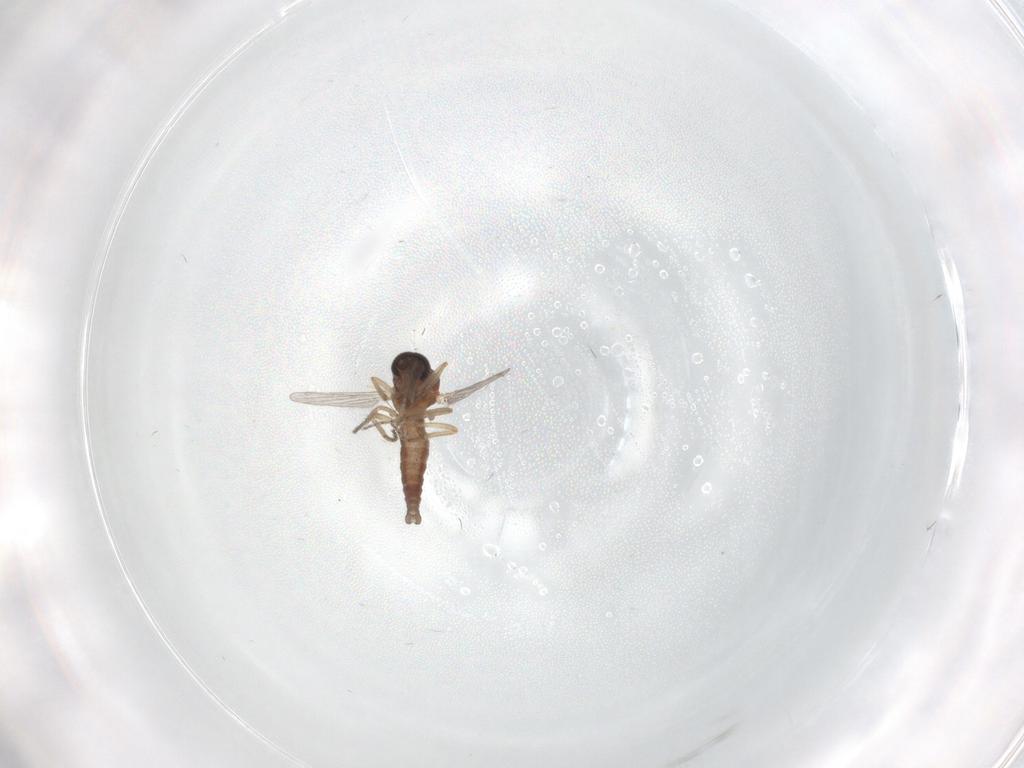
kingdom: Animalia
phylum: Arthropoda
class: Insecta
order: Diptera
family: Ceratopogonidae
